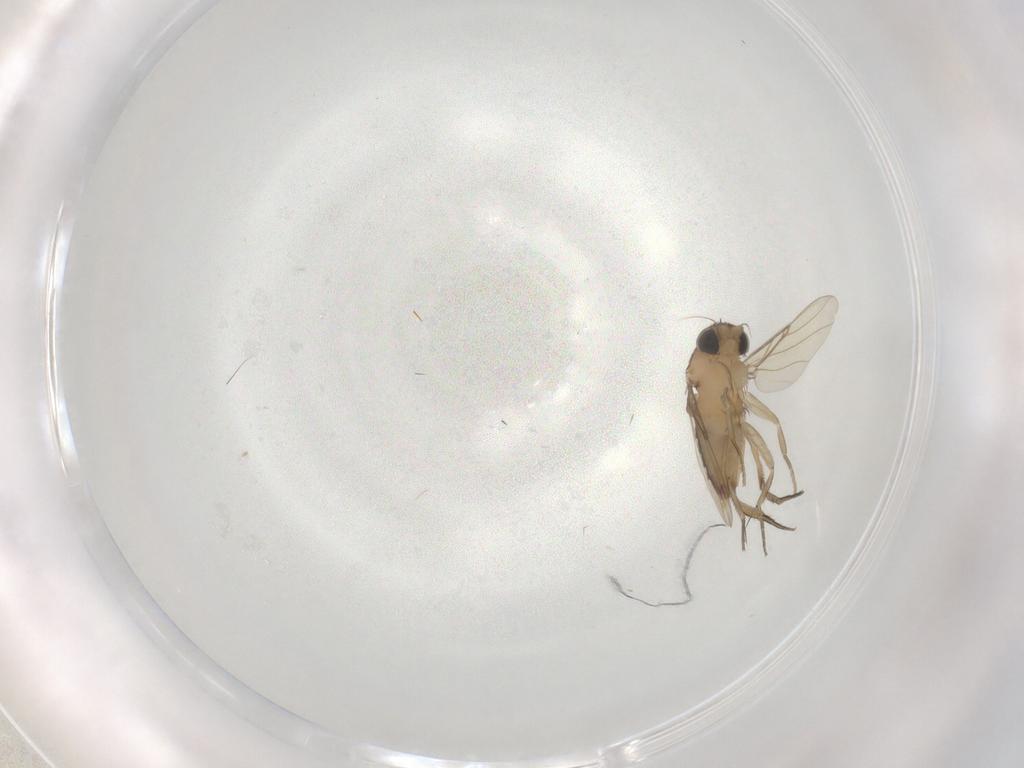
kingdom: Animalia
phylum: Arthropoda
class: Insecta
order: Diptera
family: Phoridae
